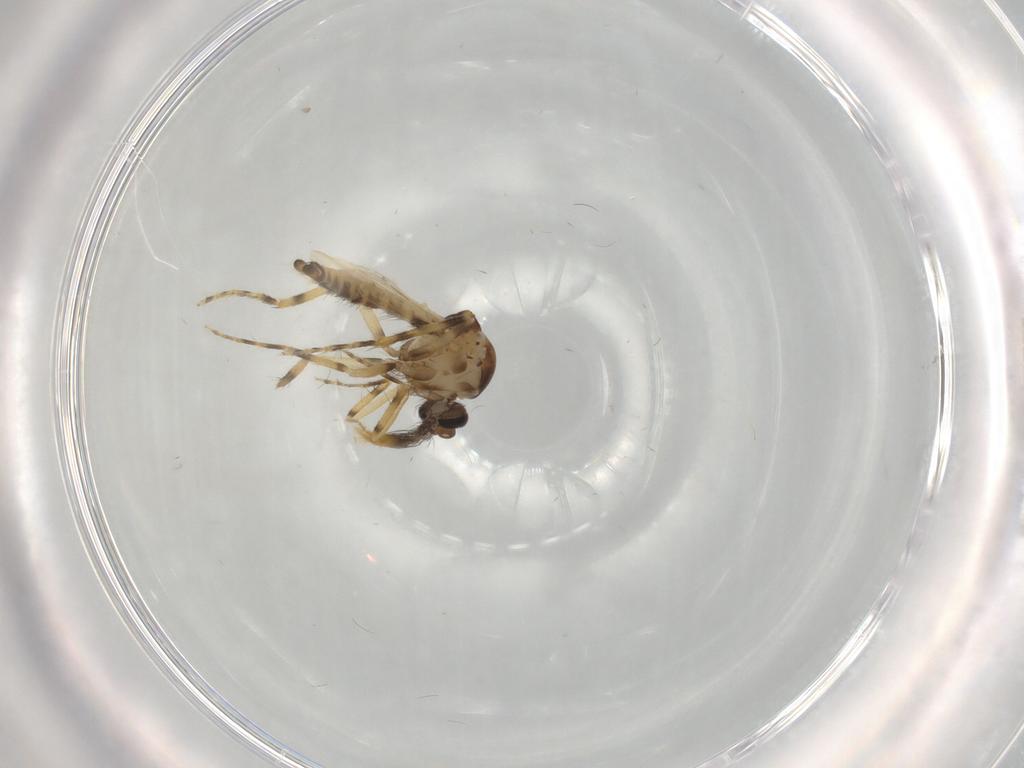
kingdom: Animalia
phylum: Arthropoda
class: Insecta
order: Diptera
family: Ceratopogonidae
